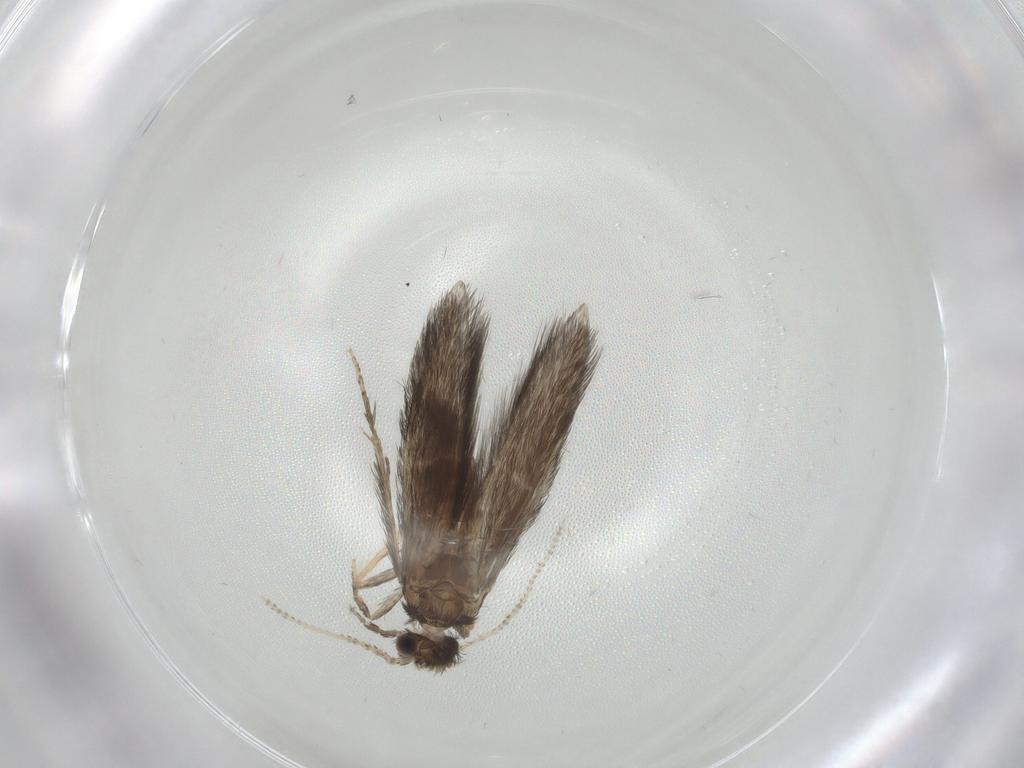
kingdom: Animalia
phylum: Arthropoda
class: Insecta
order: Trichoptera
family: Hydroptilidae
